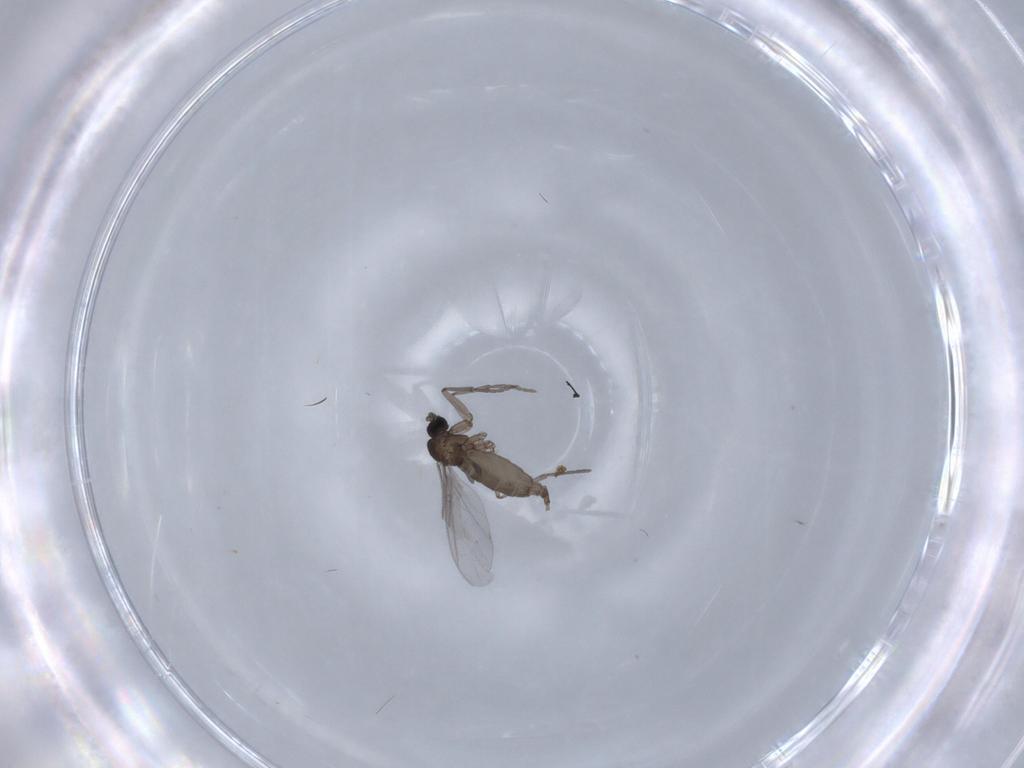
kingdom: Animalia
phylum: Arthropoda
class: Insecta
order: Diptera
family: Sciaridae
